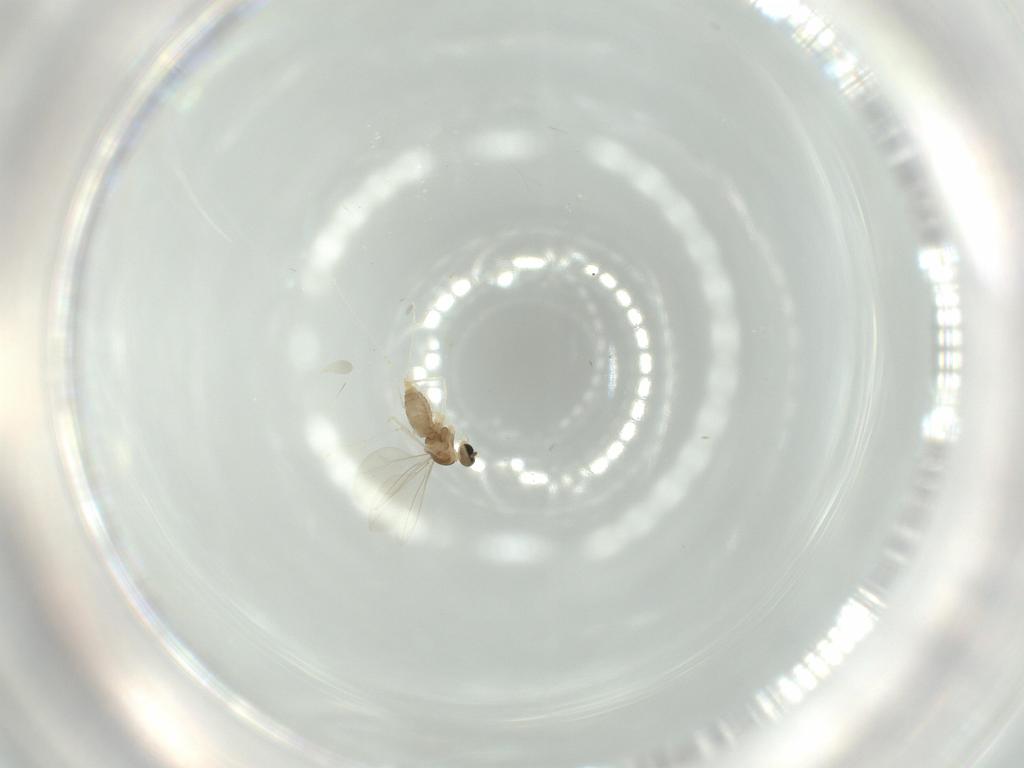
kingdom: Animalia
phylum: Arthropoda
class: Insecta
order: Diptera
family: Cecidomyiidae
